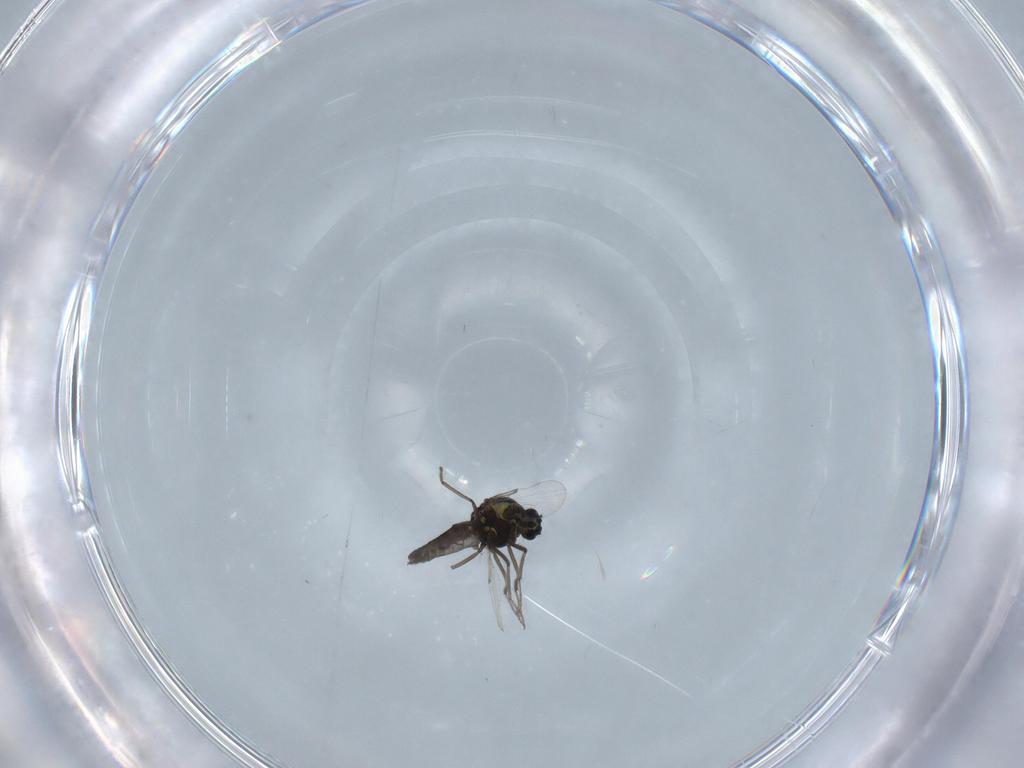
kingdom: Animalia
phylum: Arthropoda
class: Insecta
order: Diptera
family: Ceratopogonidae
